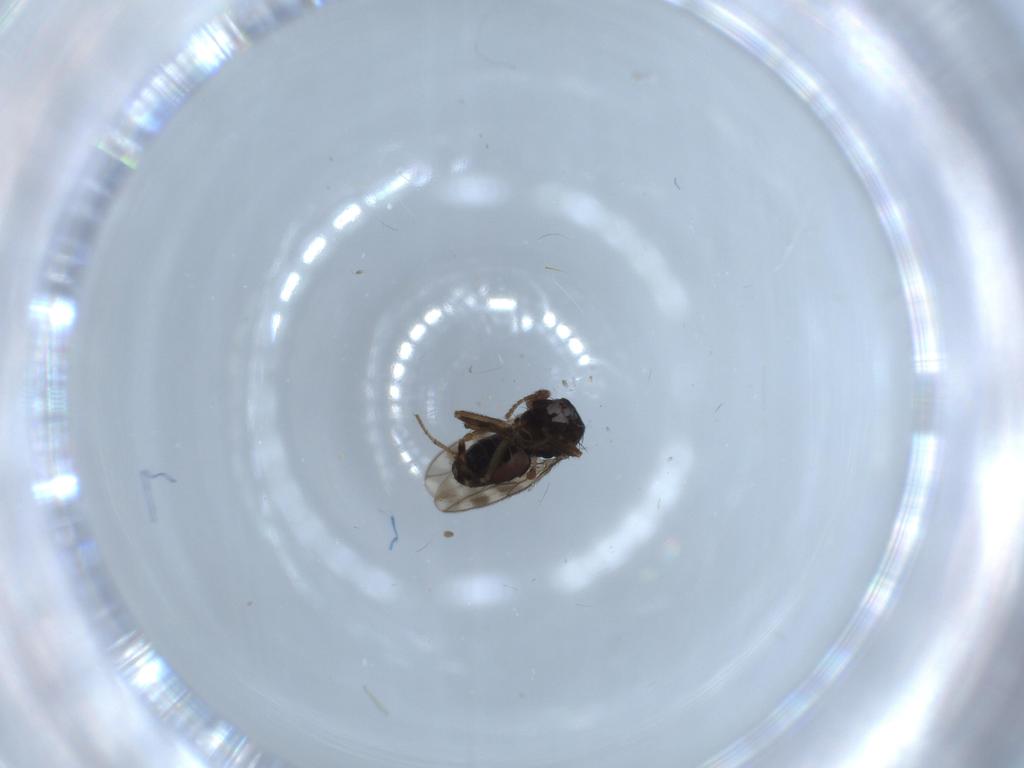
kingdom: Animalia
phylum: Arthropoda
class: Insecta
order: Diptera
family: Sphaeroceridae
